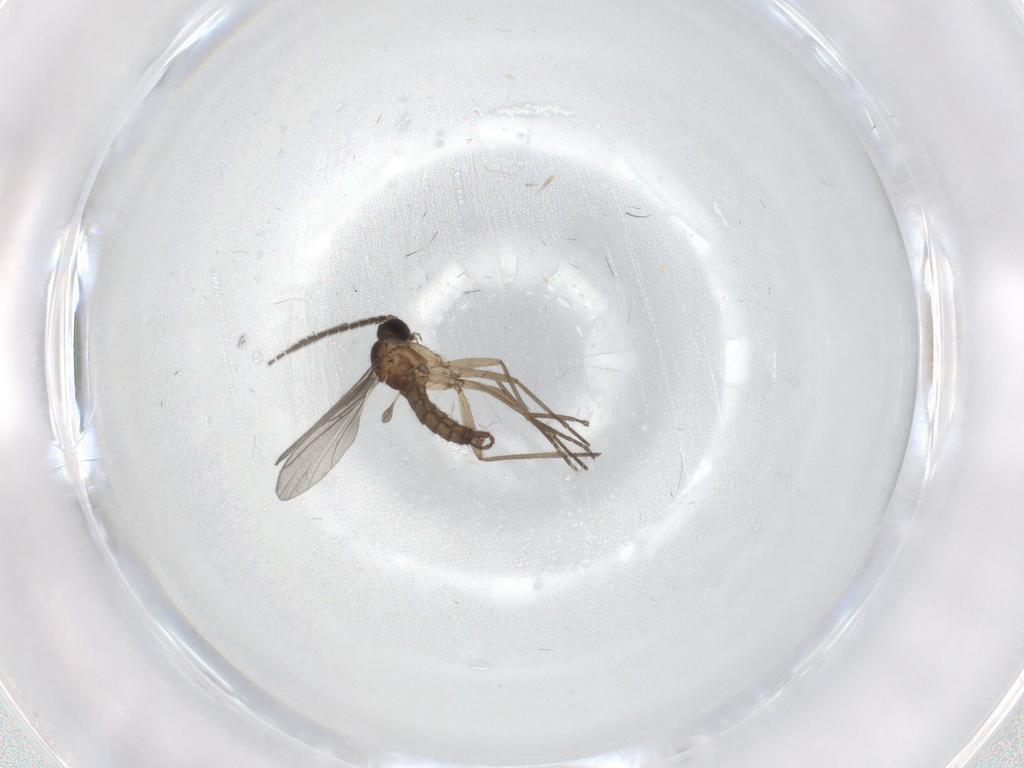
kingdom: Animalia
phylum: Arthropoda
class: Insecta
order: Diptera
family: Sciaridae
